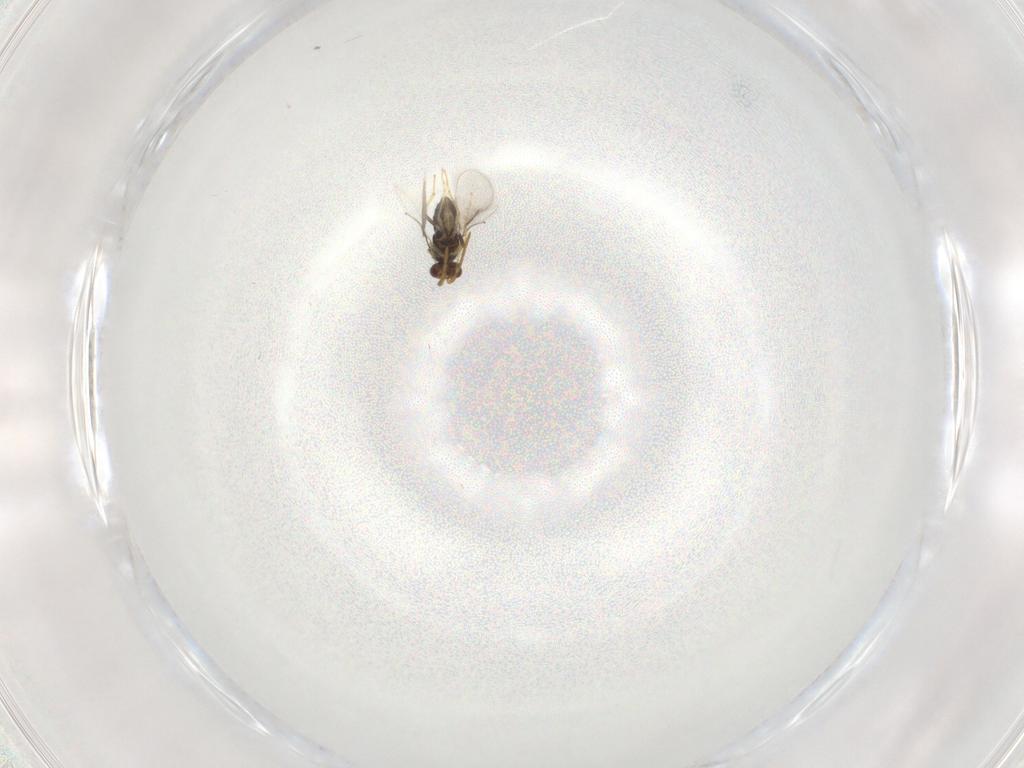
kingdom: Animalia
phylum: Arthropoda
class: Insecta
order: Hymenoptera
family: Aphelinidae
